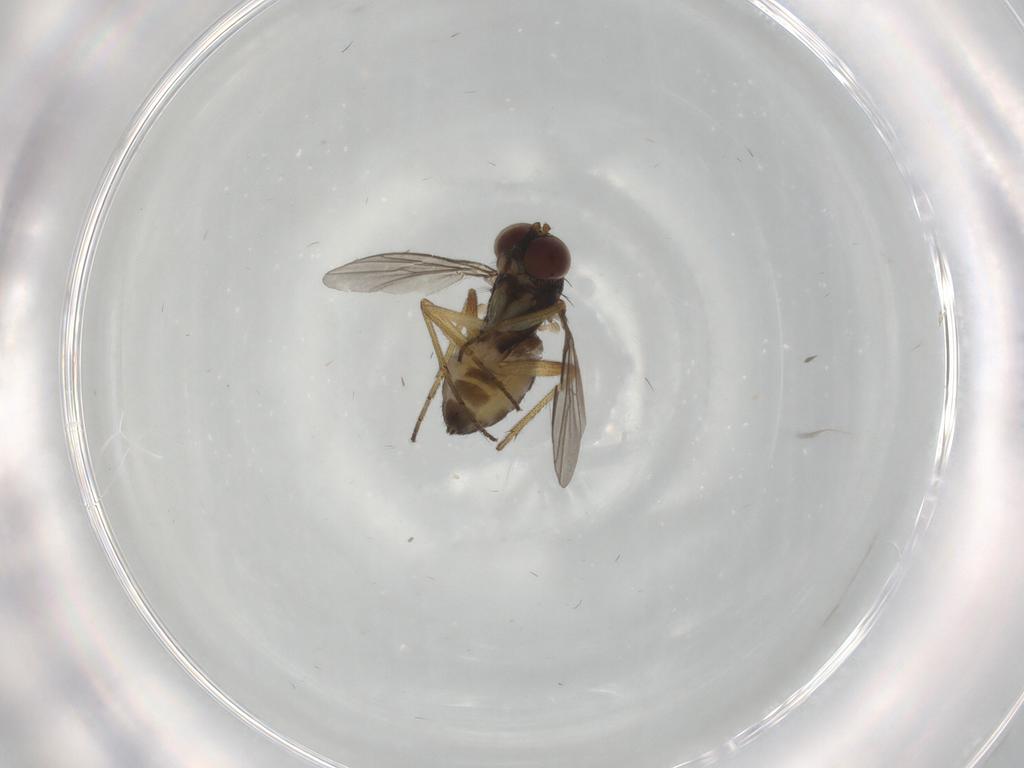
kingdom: Animalia
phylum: Arthropoda
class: Insecta
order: Diptera
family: Dolichopodidae
